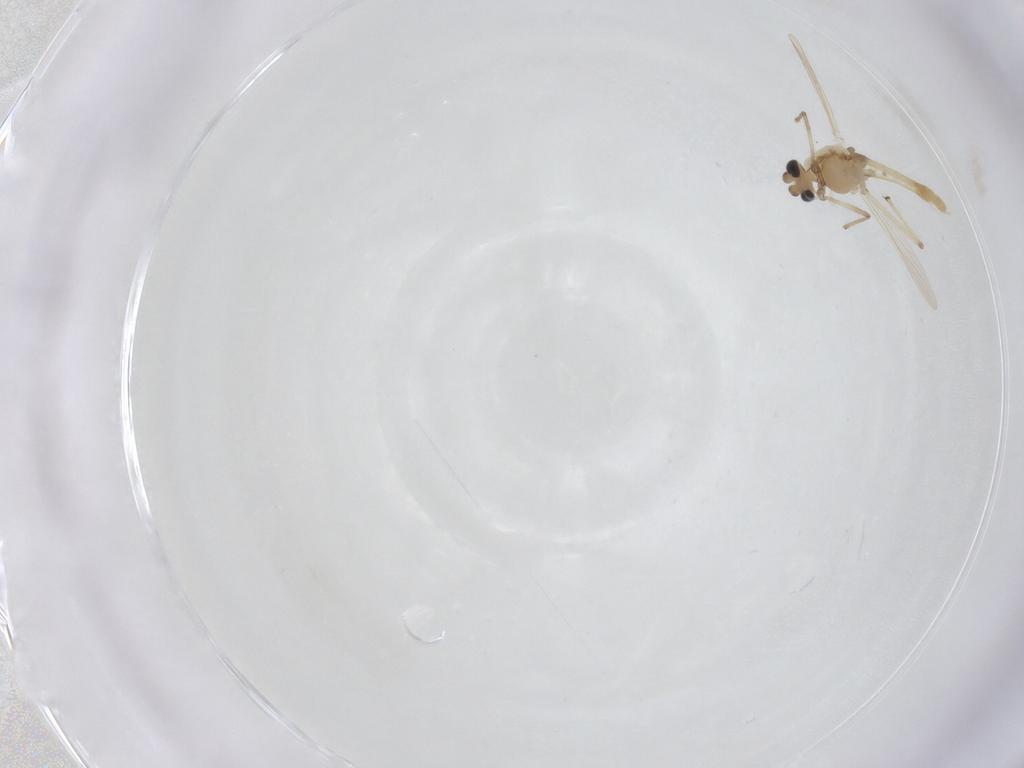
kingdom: Animalia
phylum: Arthropoda
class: Insecta
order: Diptera
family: Chironomidae
